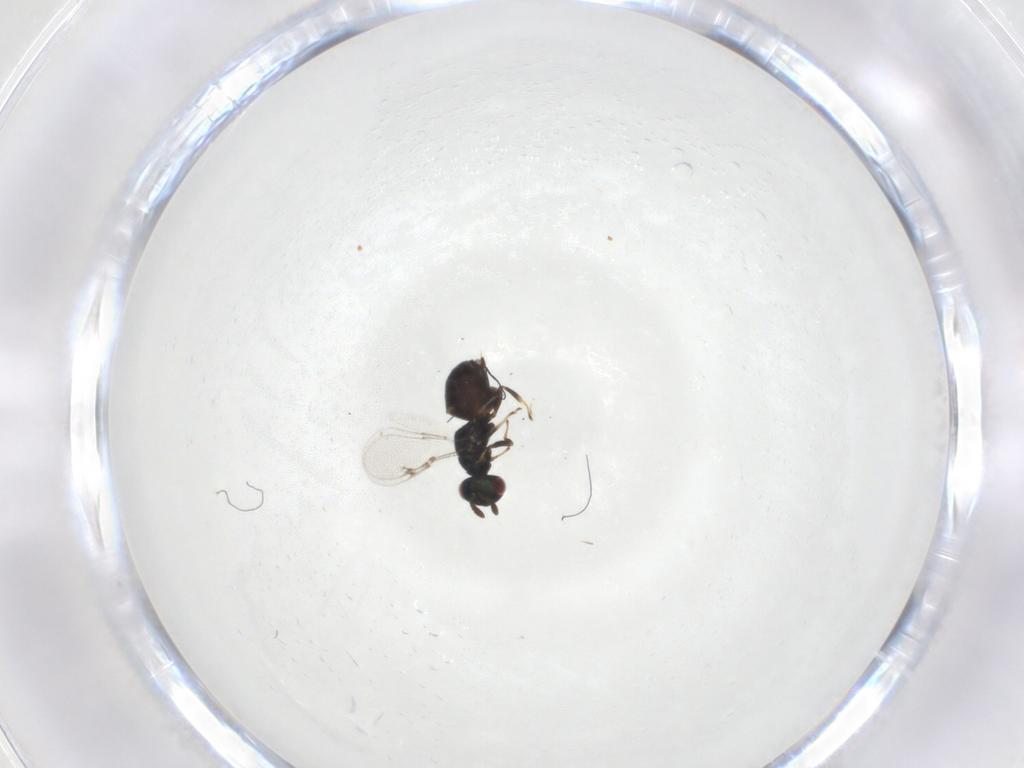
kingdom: Animalia
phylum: Arthropoda
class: Insecta
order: Hymenoptera
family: Pteromalidae
